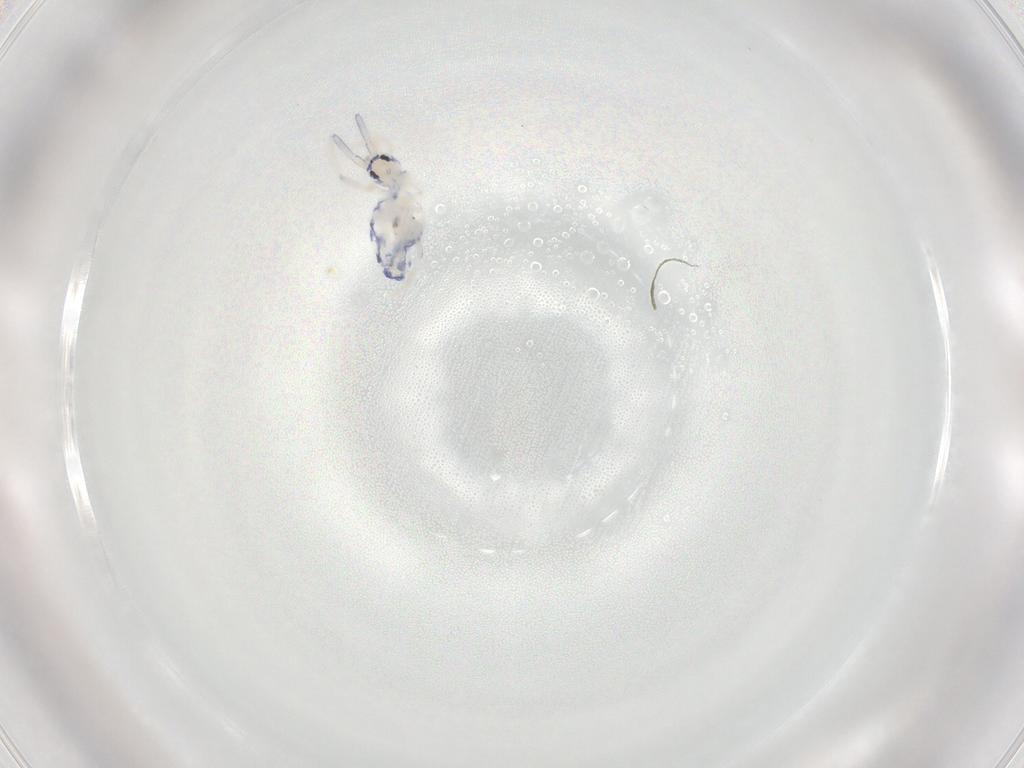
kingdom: Animalia
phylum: Arthropoda
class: Collembola
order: Entomobryomorpha
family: Entomobryidae
